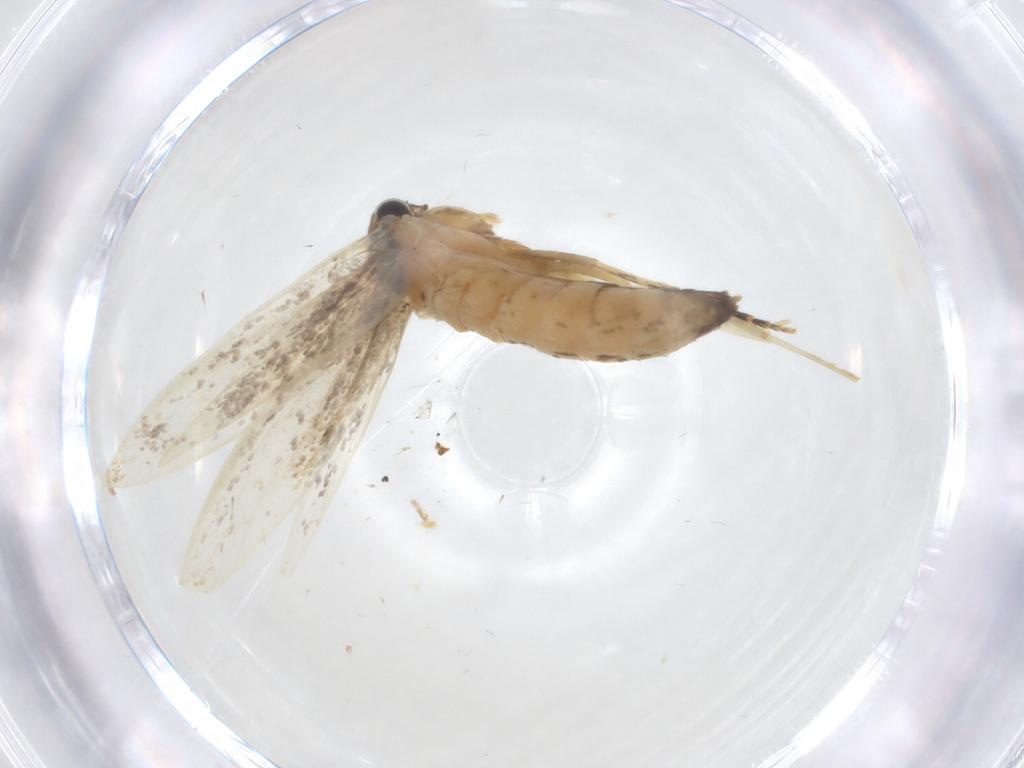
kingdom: Animalia
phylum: Arthropoda
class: Insecta
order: Lepidoptera
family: Tineidae
